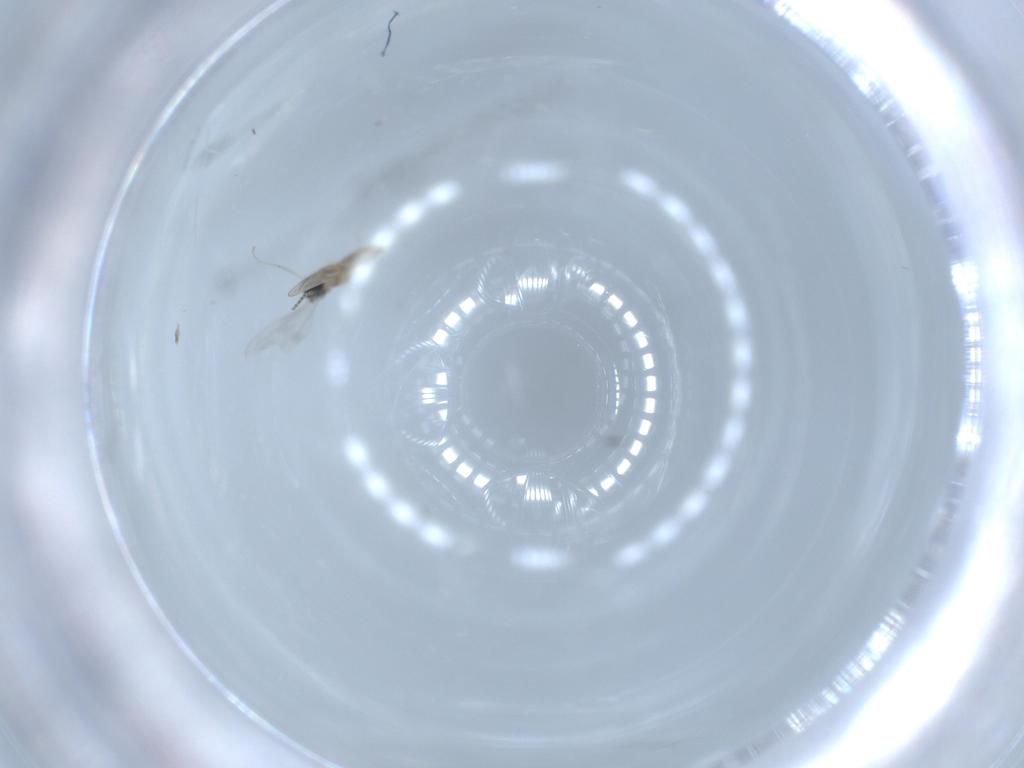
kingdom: Animalia
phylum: Arthropoda
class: Insecta
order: Diptera
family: Cecidomyiidae
